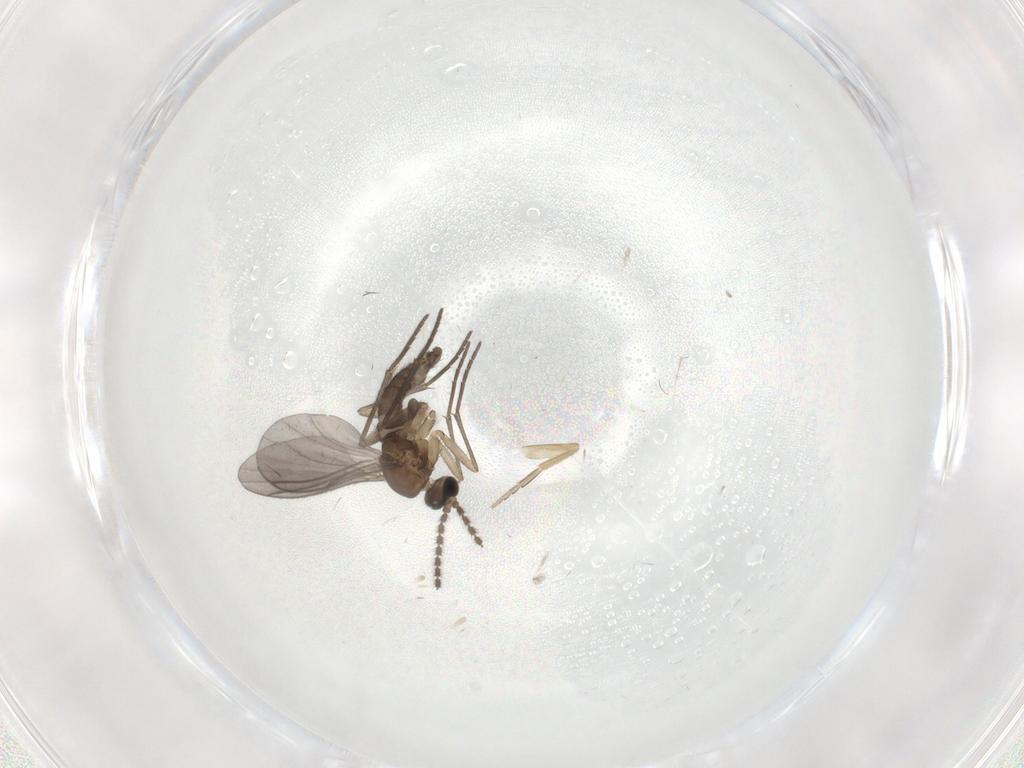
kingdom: Animalia
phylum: Arthropoda
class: Insecta
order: Diptera
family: Sciaridae
